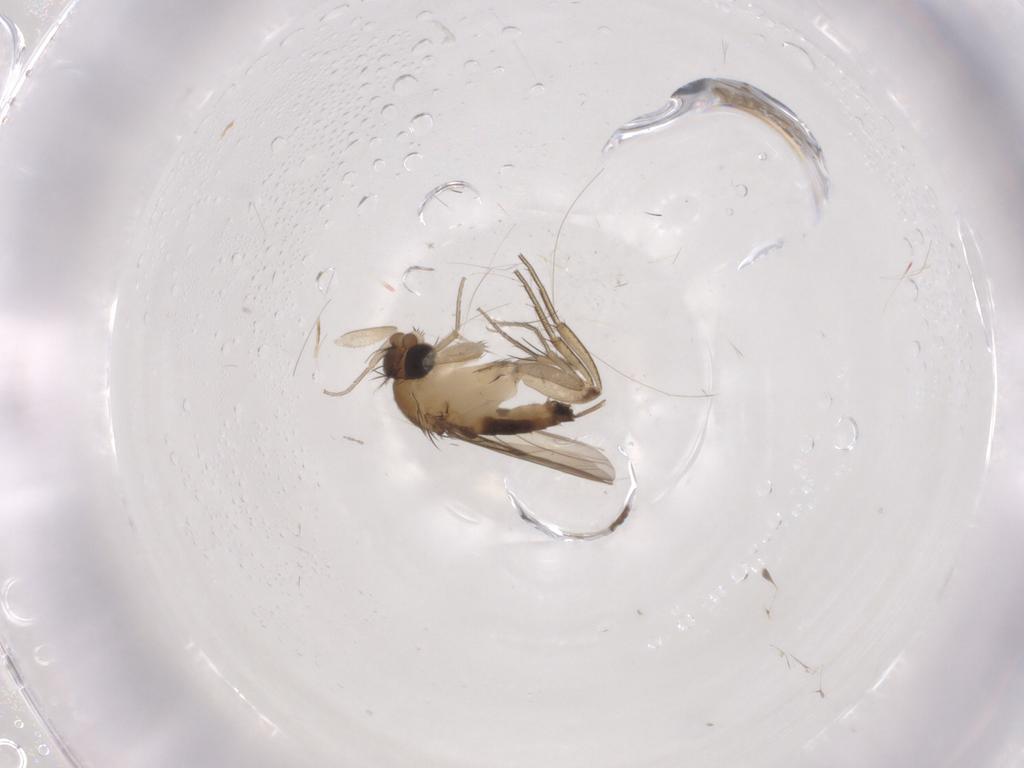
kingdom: Animalia
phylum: Arthropoda
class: Insecta
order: Diptera
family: Phoridae
